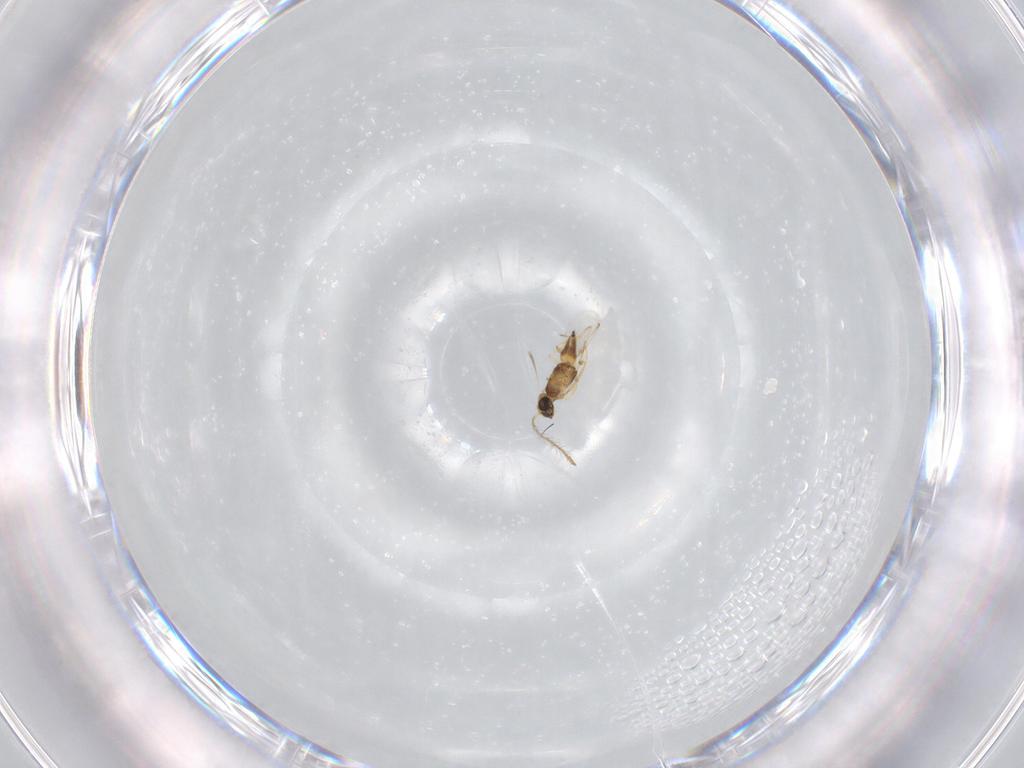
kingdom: Animalia
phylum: Arthropoda
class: Insecta
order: Hymenoptera
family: Encyrtidae
